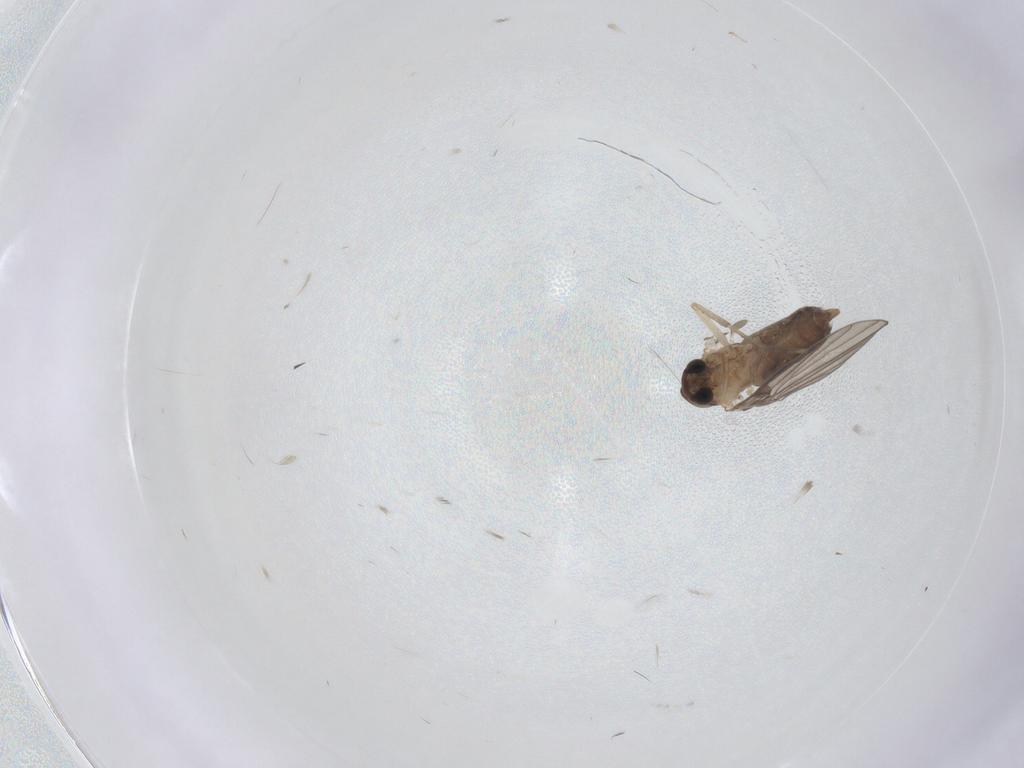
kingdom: Animalia
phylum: Arthropoda
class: Insecta
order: Diptera
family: Cecidomyiidae
